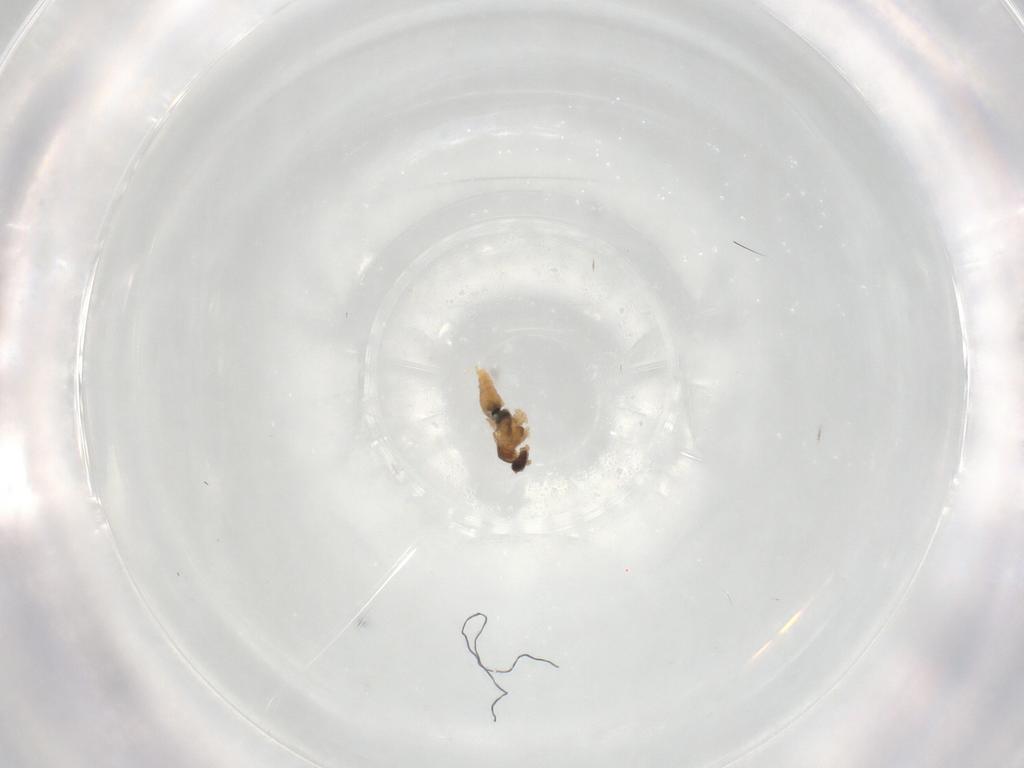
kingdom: Animalia
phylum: Arthropoda
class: Insecta
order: Diptera
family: Cecidomyiidae
